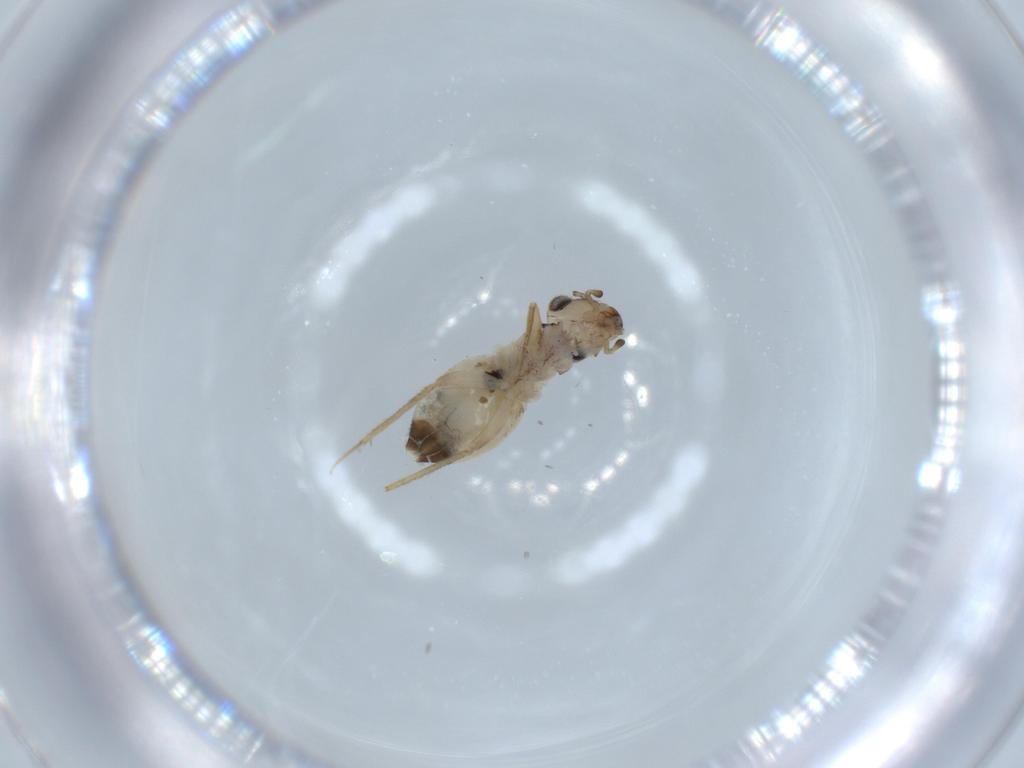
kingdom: Animalia
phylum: Arthropoda
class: Insecta
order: Psocodea
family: Lepidopsocidae
